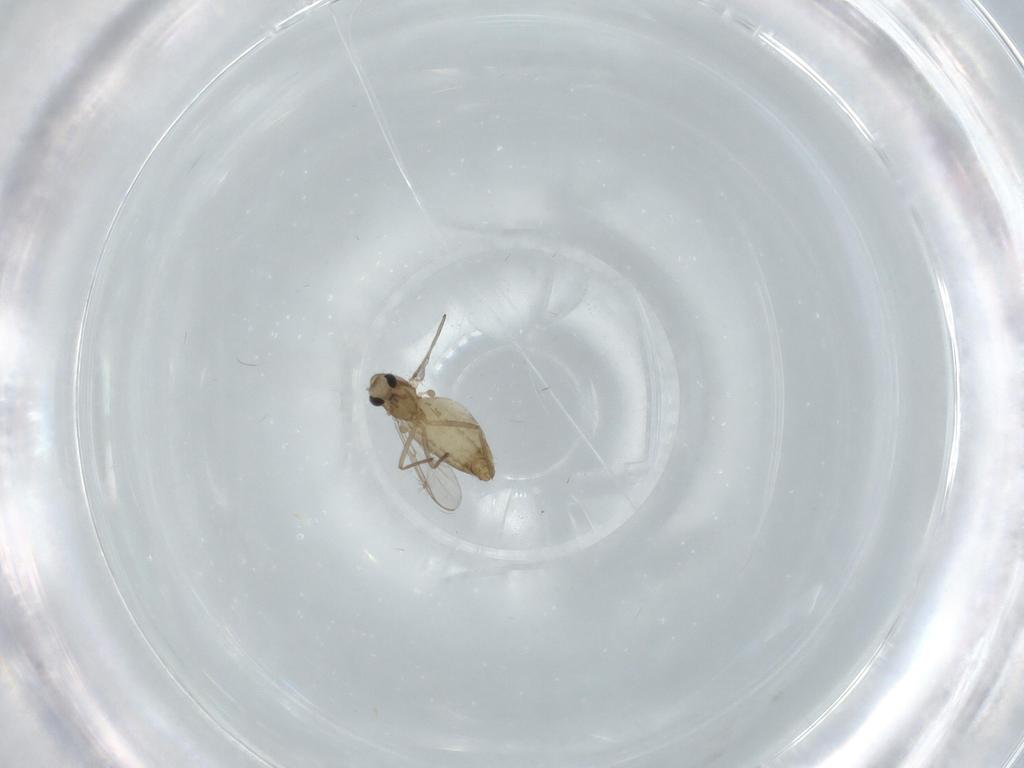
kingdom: Animalia
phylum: Arthropoda
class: Insecta
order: Diptera
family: Chironomidae
